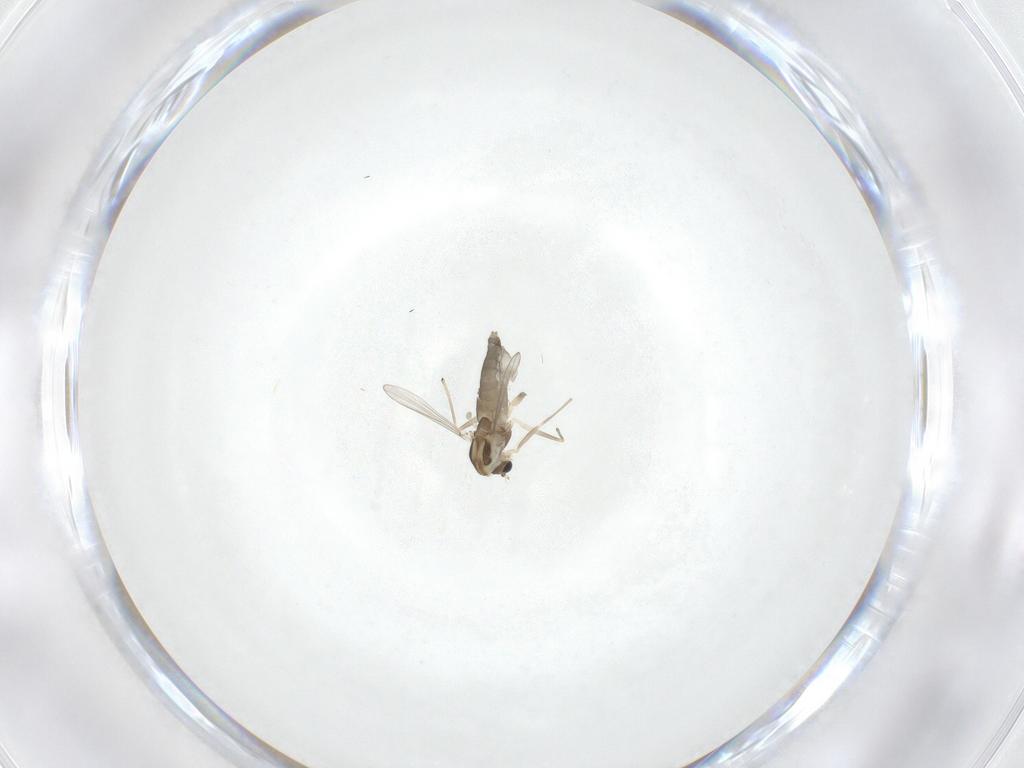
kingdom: Animalia
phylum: Arthropoda
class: Insecta
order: Diptera
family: Chironomidae
